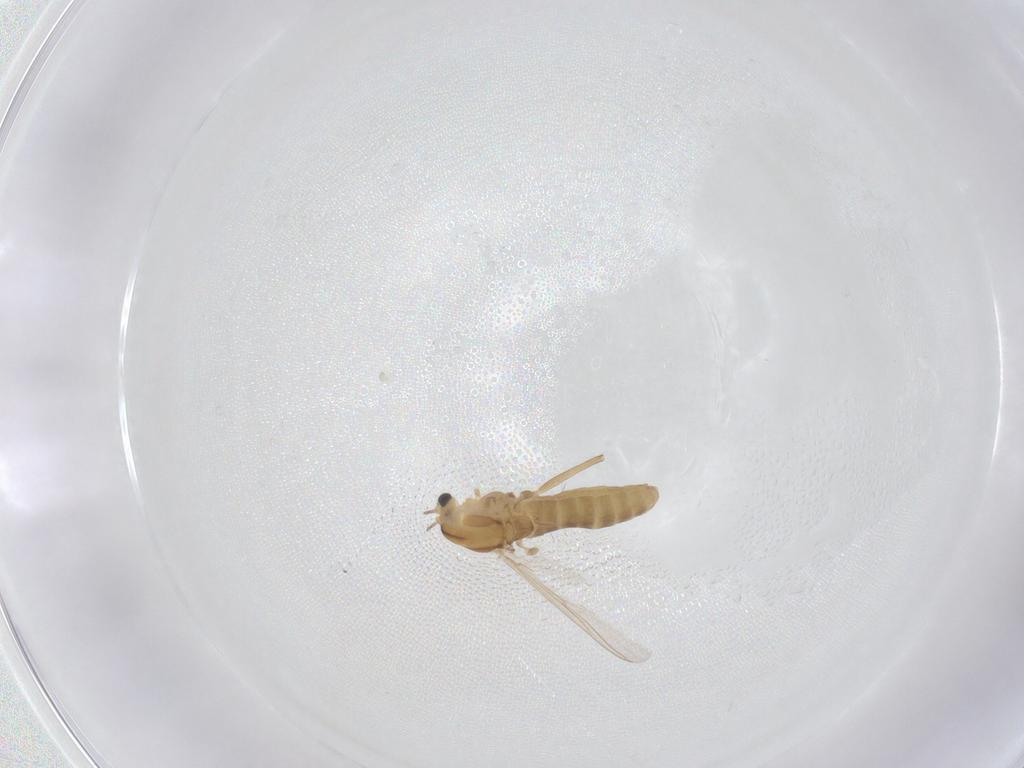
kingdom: Animalia
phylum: Arthropoda
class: Insecta
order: Diptera
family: Chironomidae
